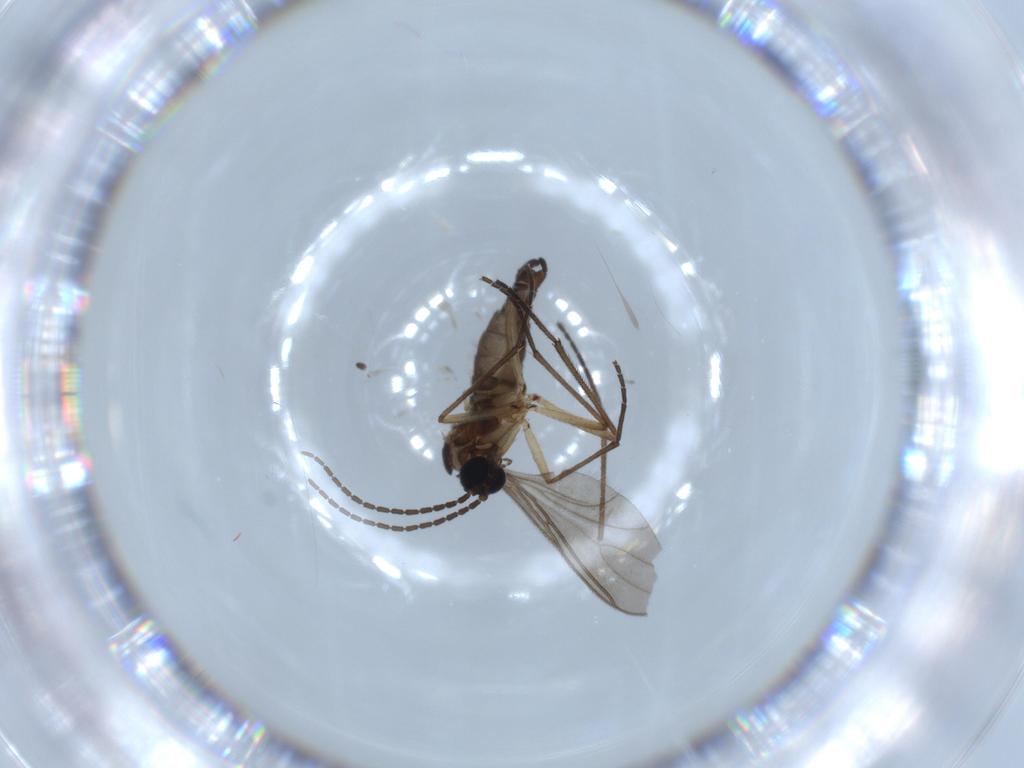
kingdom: Animalia
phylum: Arthropoda
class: Insecta
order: Diptera
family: Sciaridae
